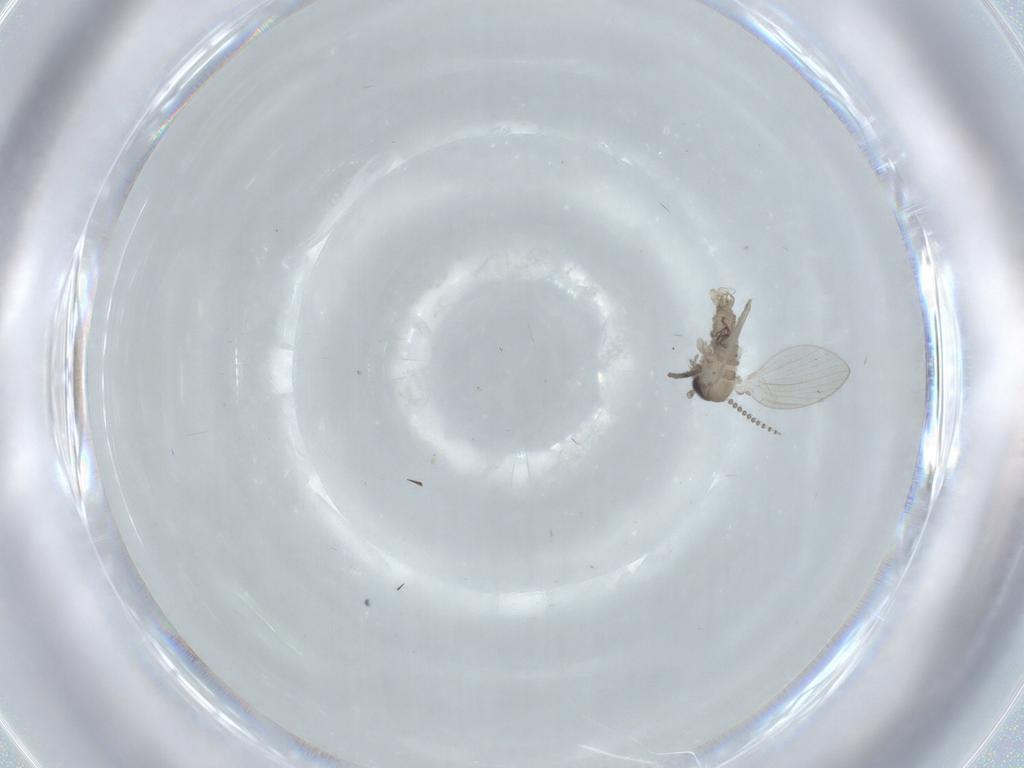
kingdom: Animalia
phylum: Arthropoda
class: Insecta
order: Diptera
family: Psychodidae
